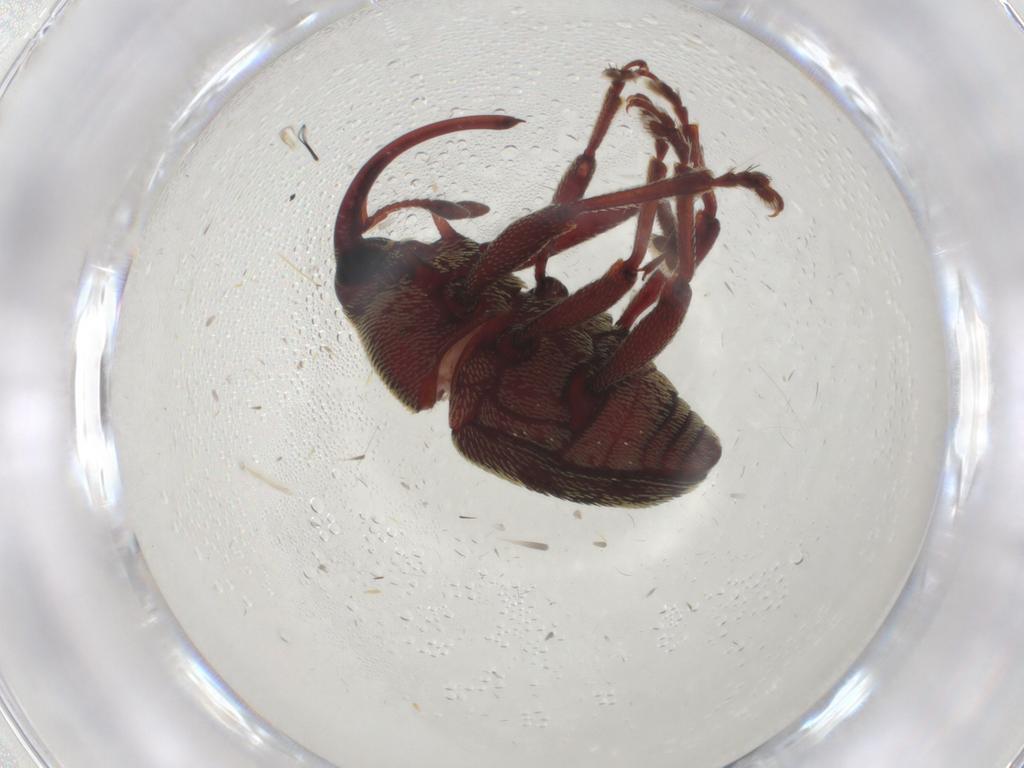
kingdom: Animalia
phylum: Arthropoda
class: Insecta
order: Coleoptera
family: Curculionidae
